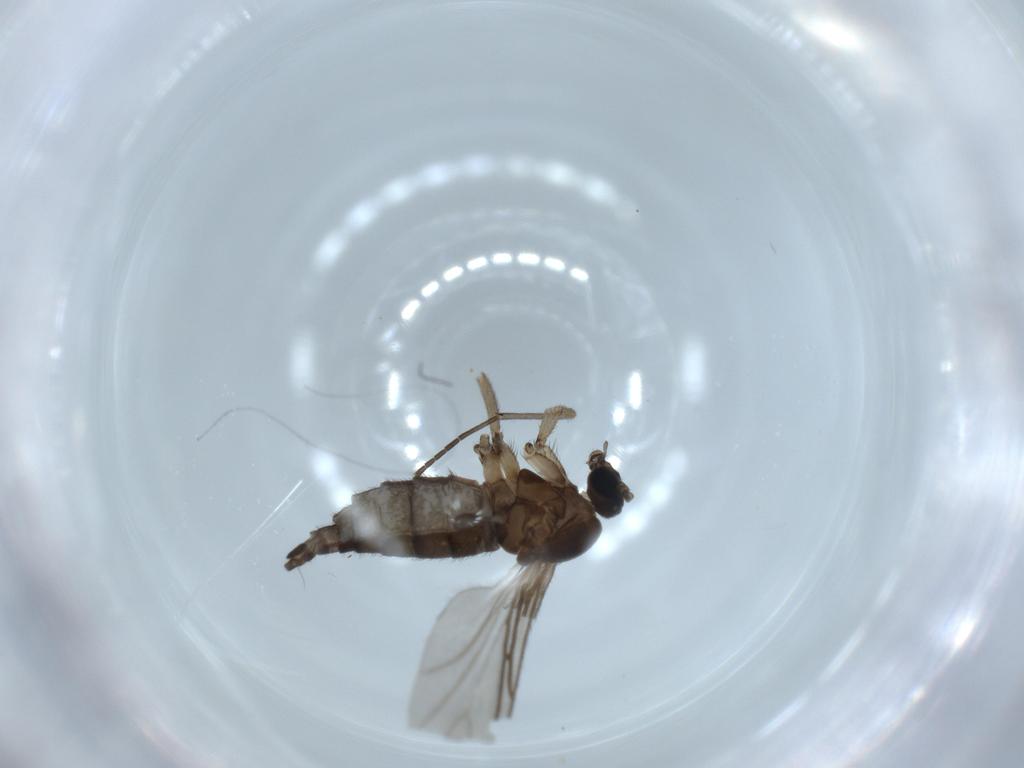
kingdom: Animalia
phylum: Arthropoda
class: Insecta
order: Diptera
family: Sciaridae
